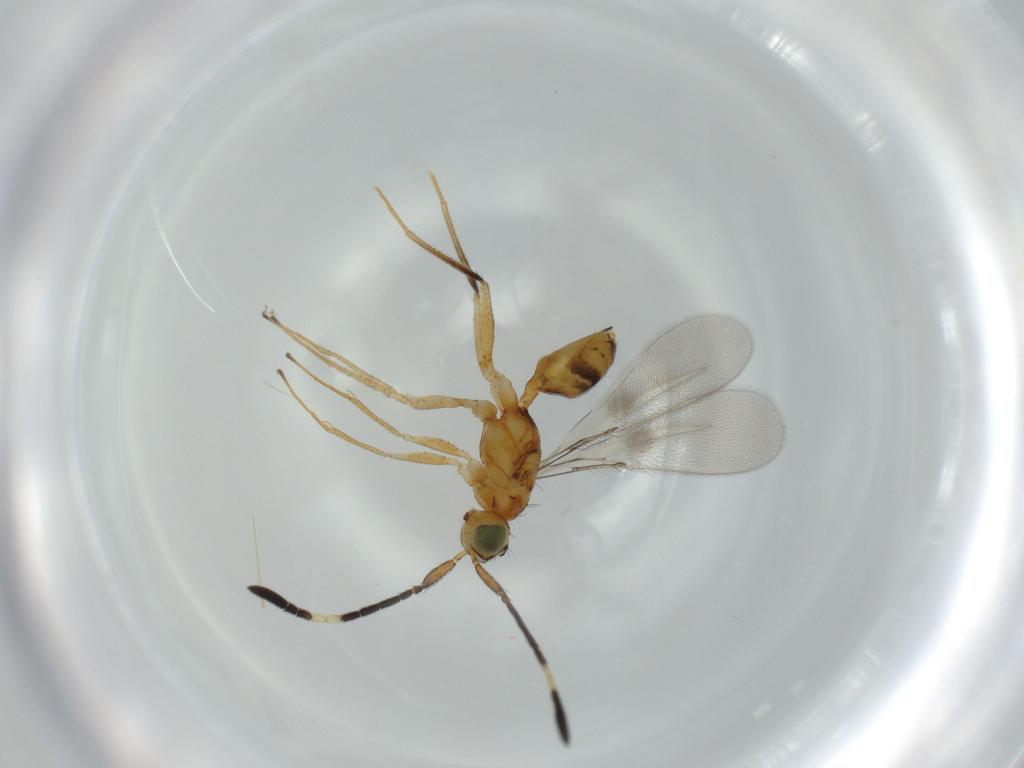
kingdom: Animalia
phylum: Arthropoda
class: Insecta
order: Hymenoptera
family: Mymaridae
